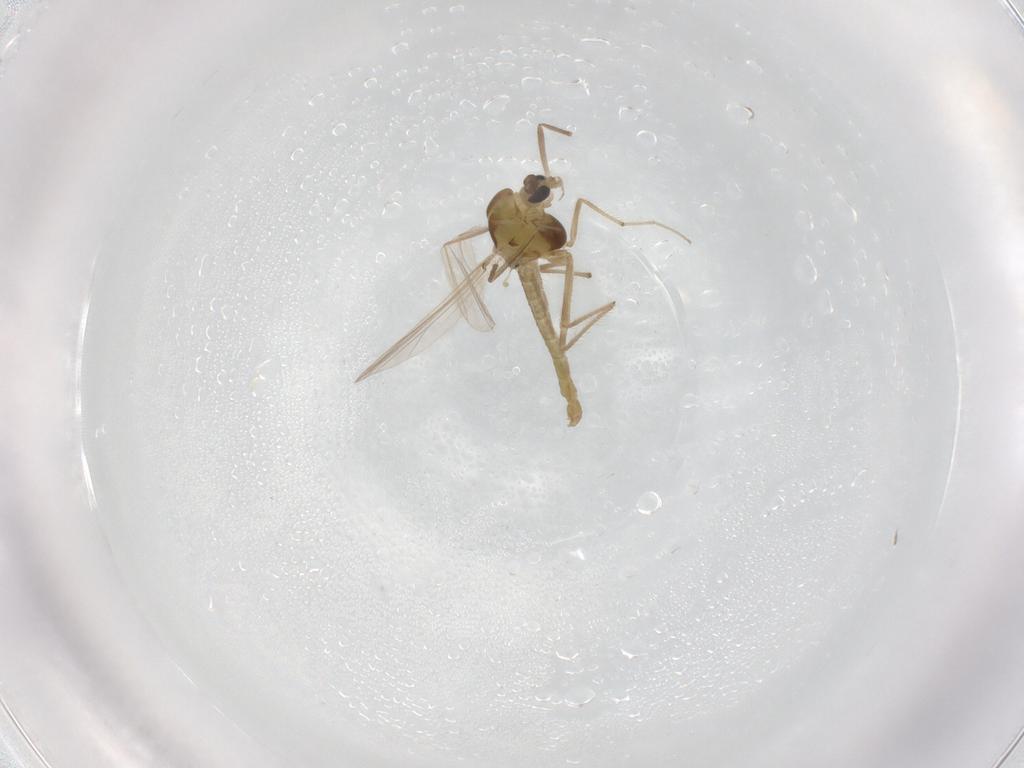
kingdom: Animalia
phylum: Arthropoda
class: Insecta
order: Diptera
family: Chironomidae
